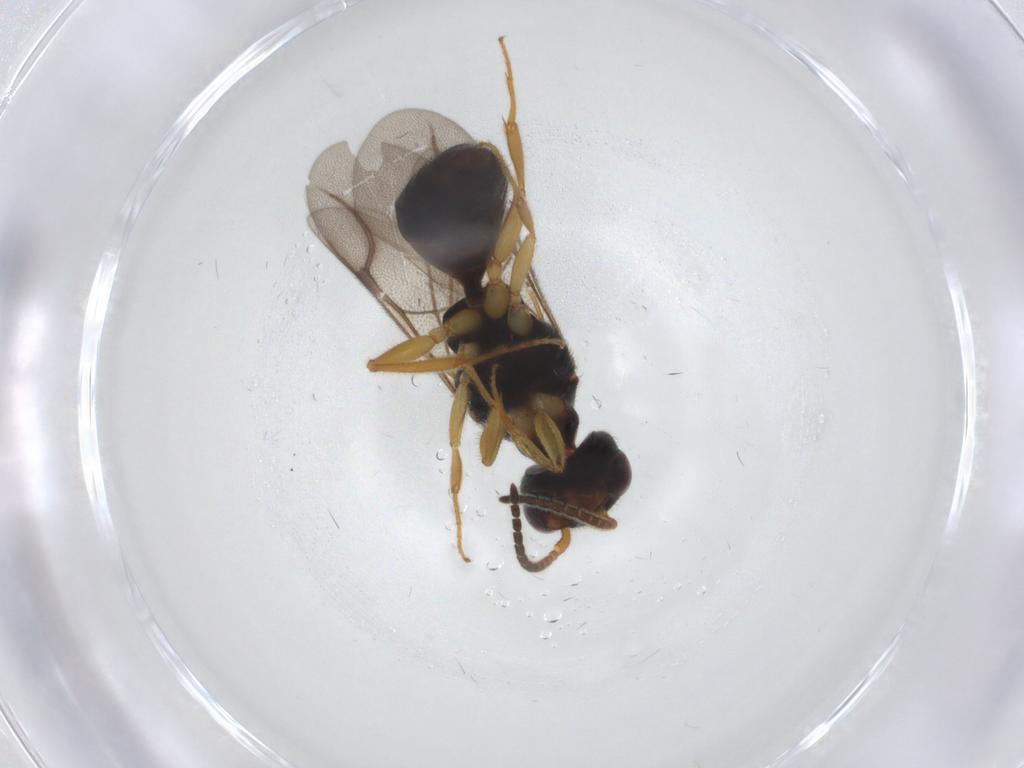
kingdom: Animalia
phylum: Arthropoda
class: Insecta
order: Hymenoptera
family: Bethylidae
